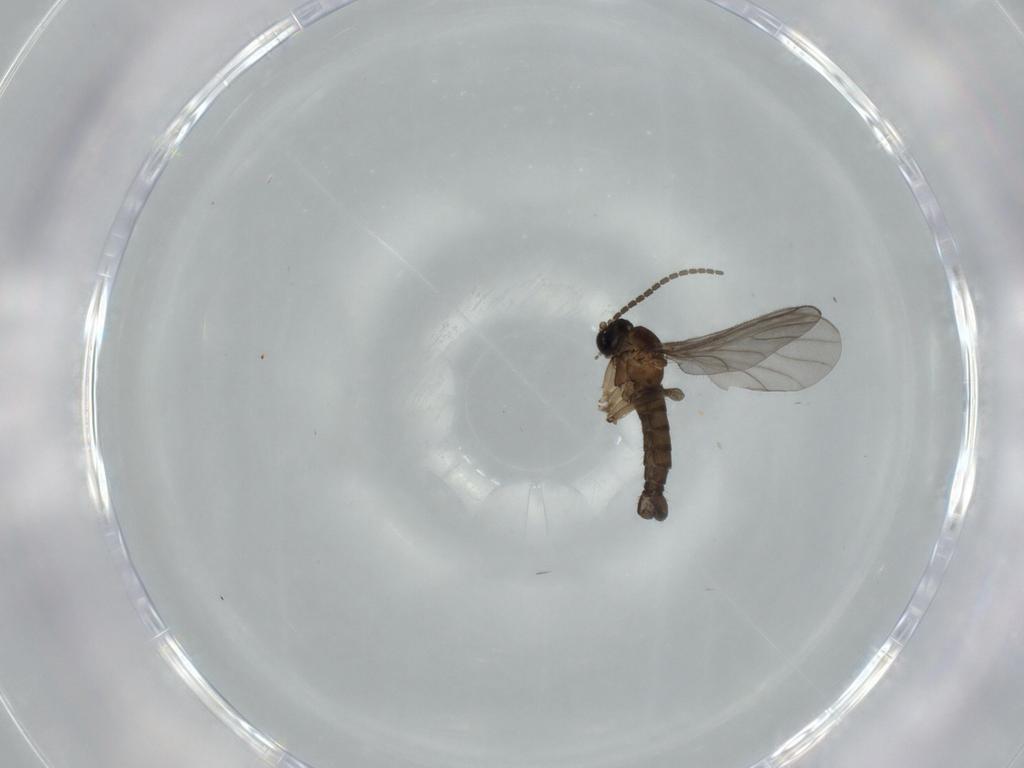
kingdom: Animalia
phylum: Arthropoda
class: Insecta
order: Diptera
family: Sciaridae
